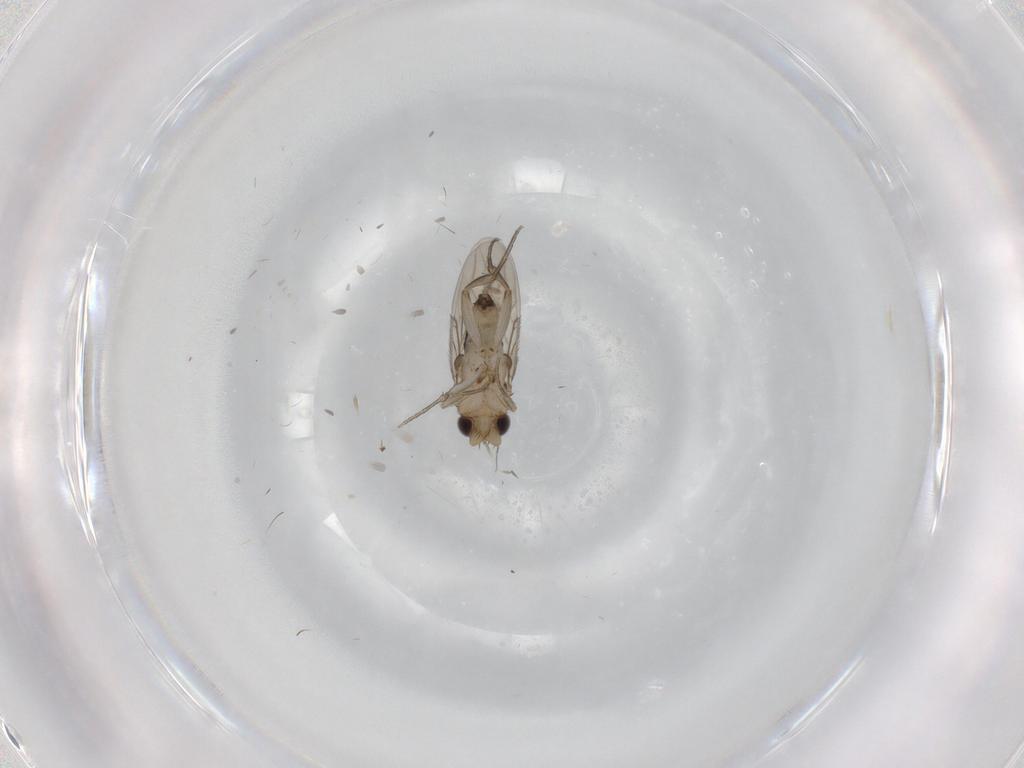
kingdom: Animalia
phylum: Arthropoda
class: Insecta
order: Diptera
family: Phoridae
